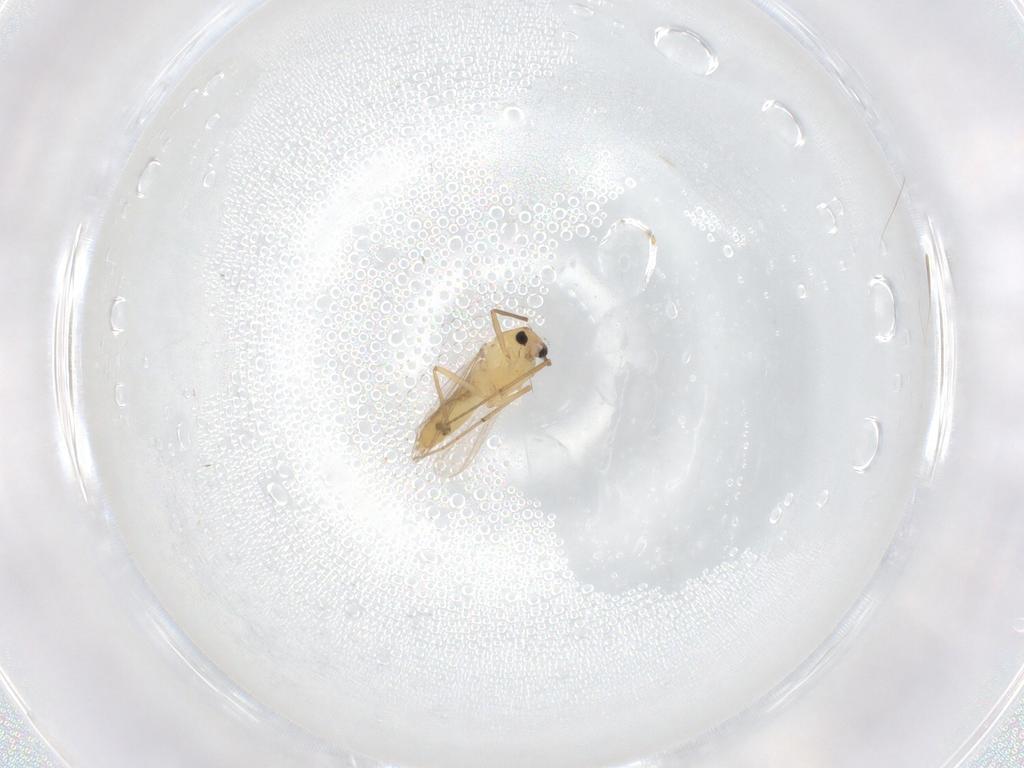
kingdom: Animalia
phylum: Arthropoda
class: Insecta
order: Diptera
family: Chironomidae
